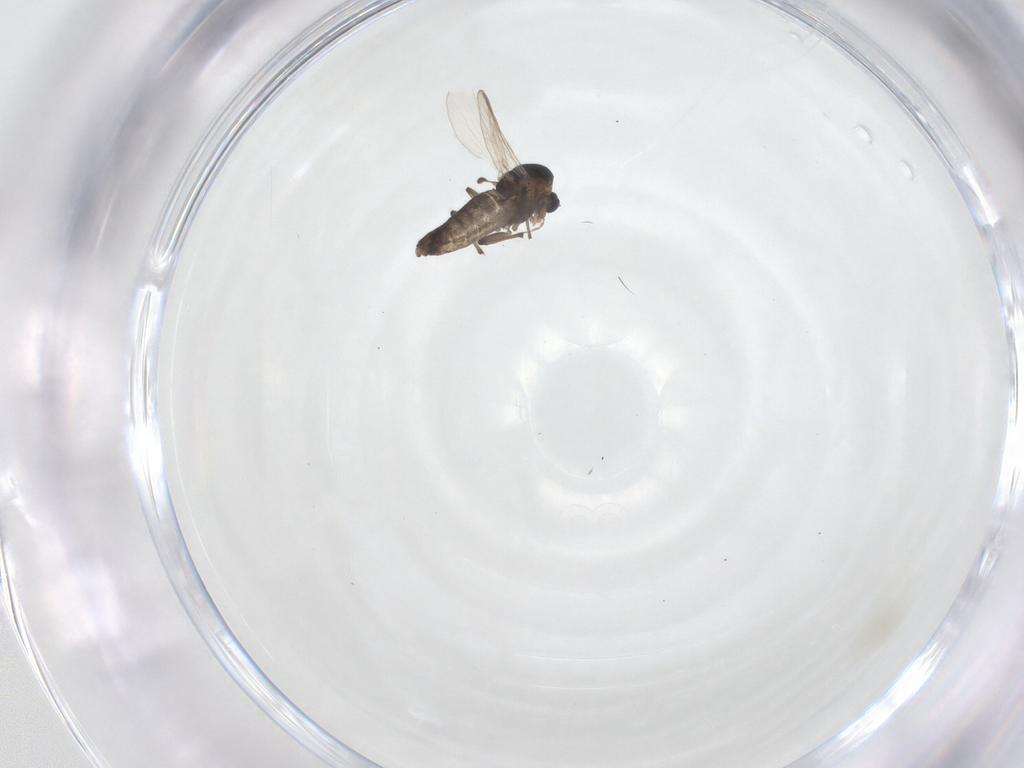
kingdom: Animalia
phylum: Arthropoda
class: Insecta
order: Diptera
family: Chironomidae
